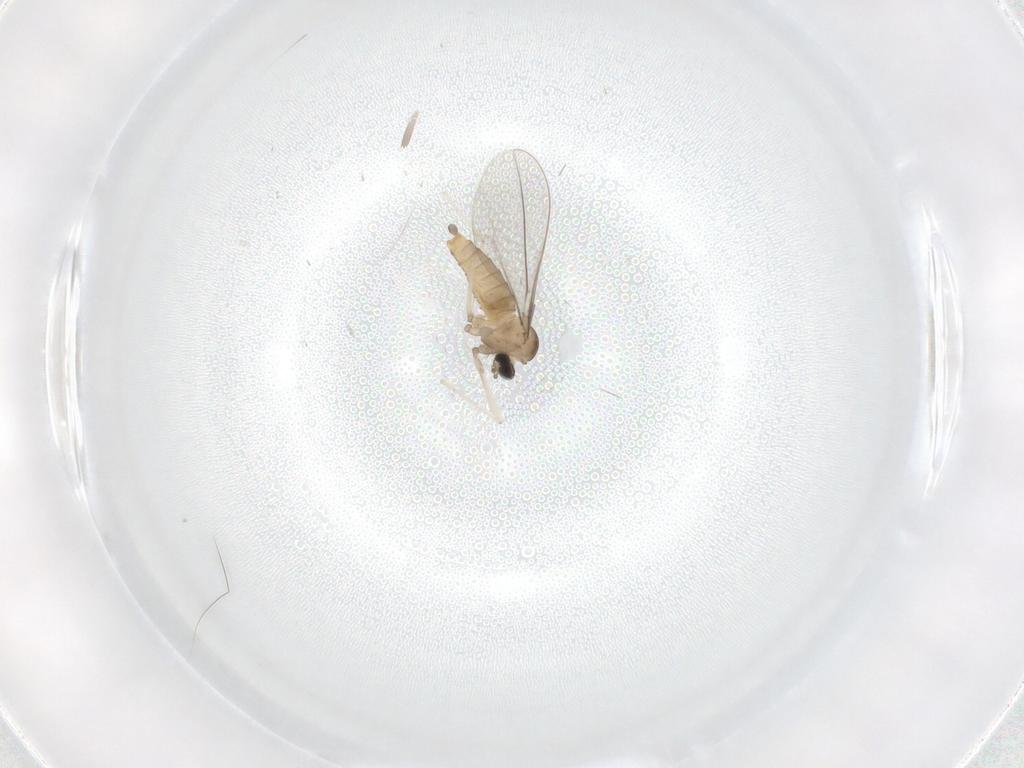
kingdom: Animalia
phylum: Arthropoda
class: Insecta
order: Diptera
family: Cecidomyiidae
